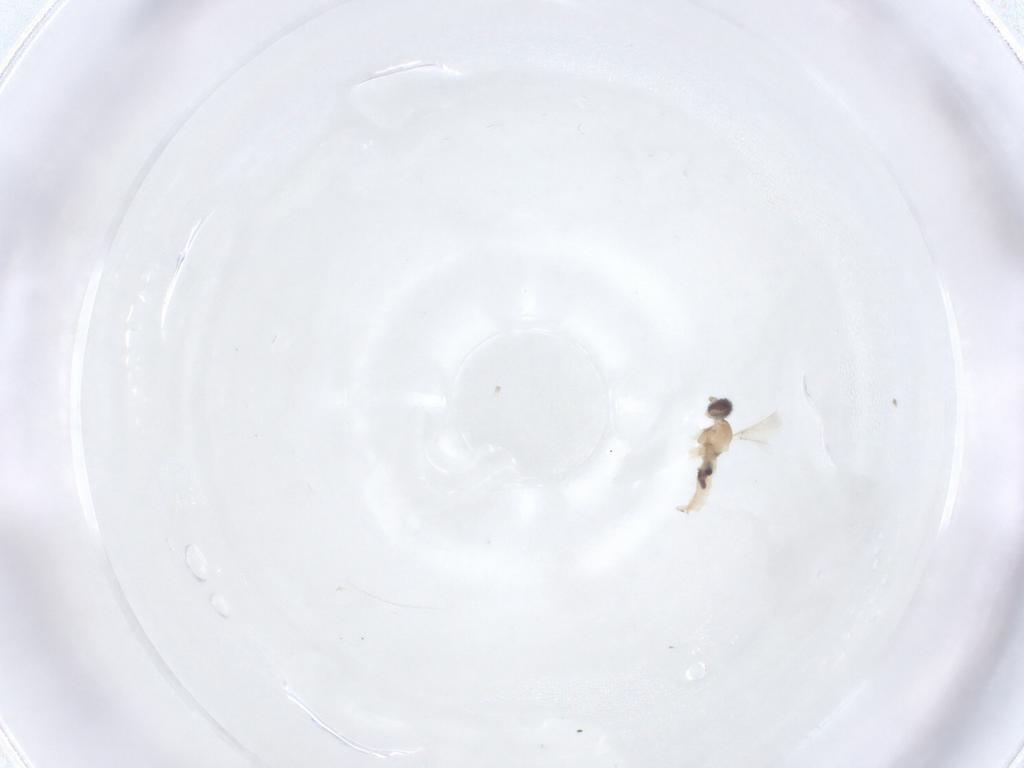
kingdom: Animalia
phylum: Arthropoda
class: Insecta
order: Diptera
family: Cecidomyiidae
